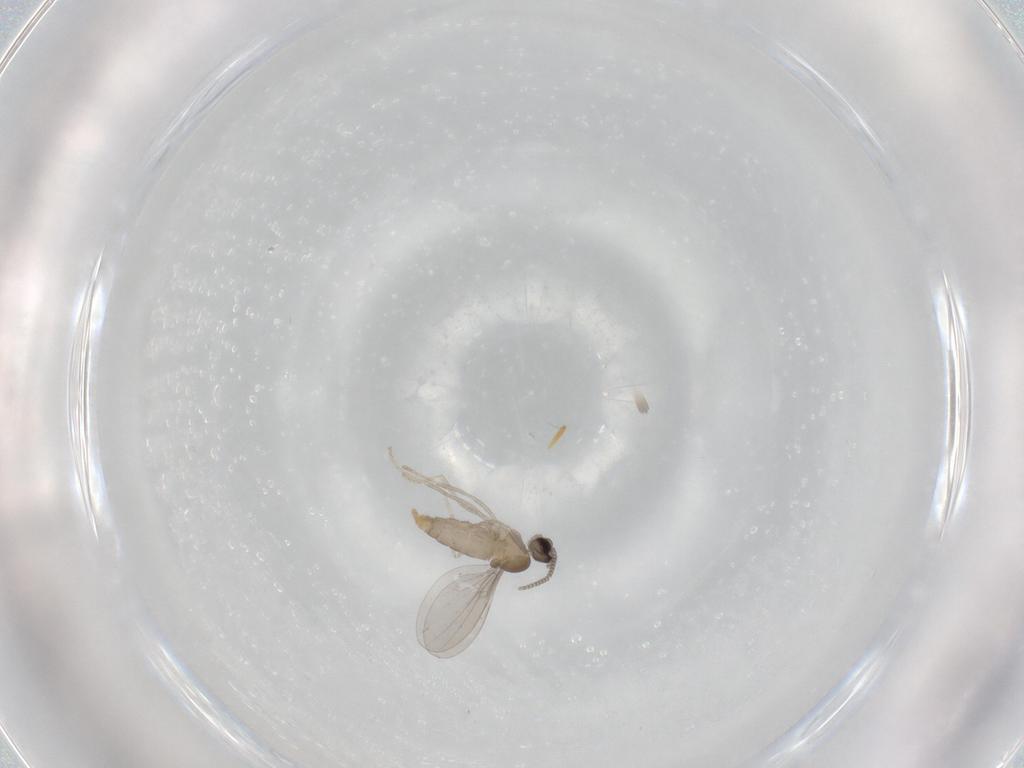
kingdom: Animalia
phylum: Arthropoda
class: Insecta
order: Diptera
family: Cecidomyiidae
